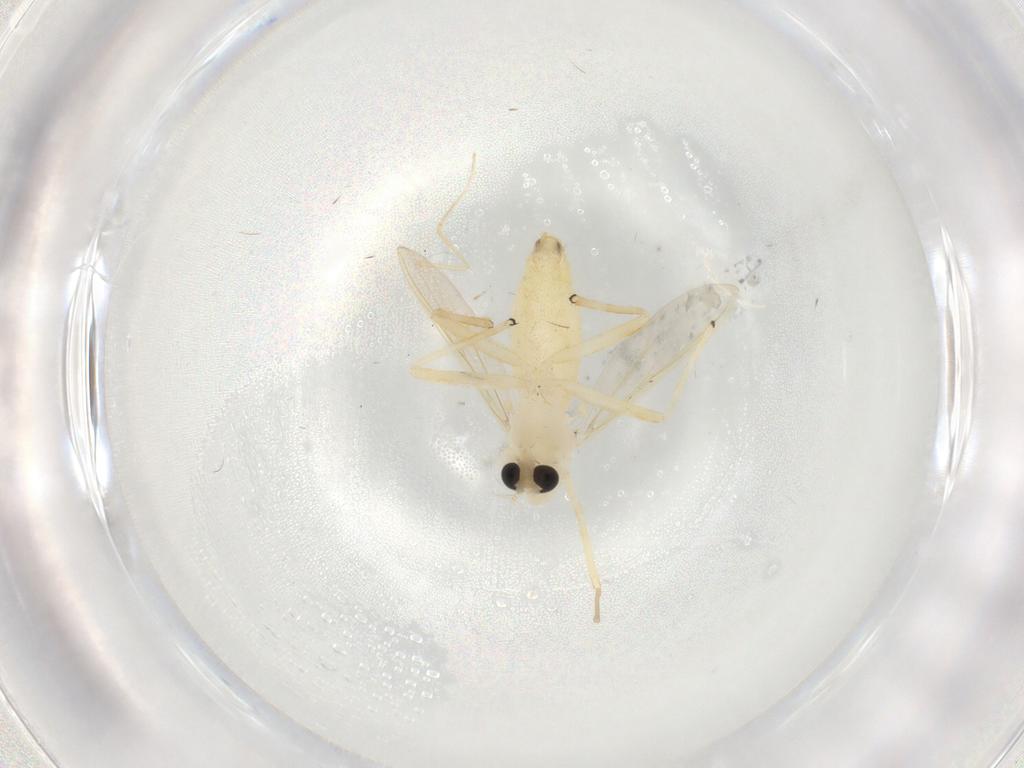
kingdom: Animalia
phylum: Arthropoda
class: Insecta
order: Diptera
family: Chironomidae
